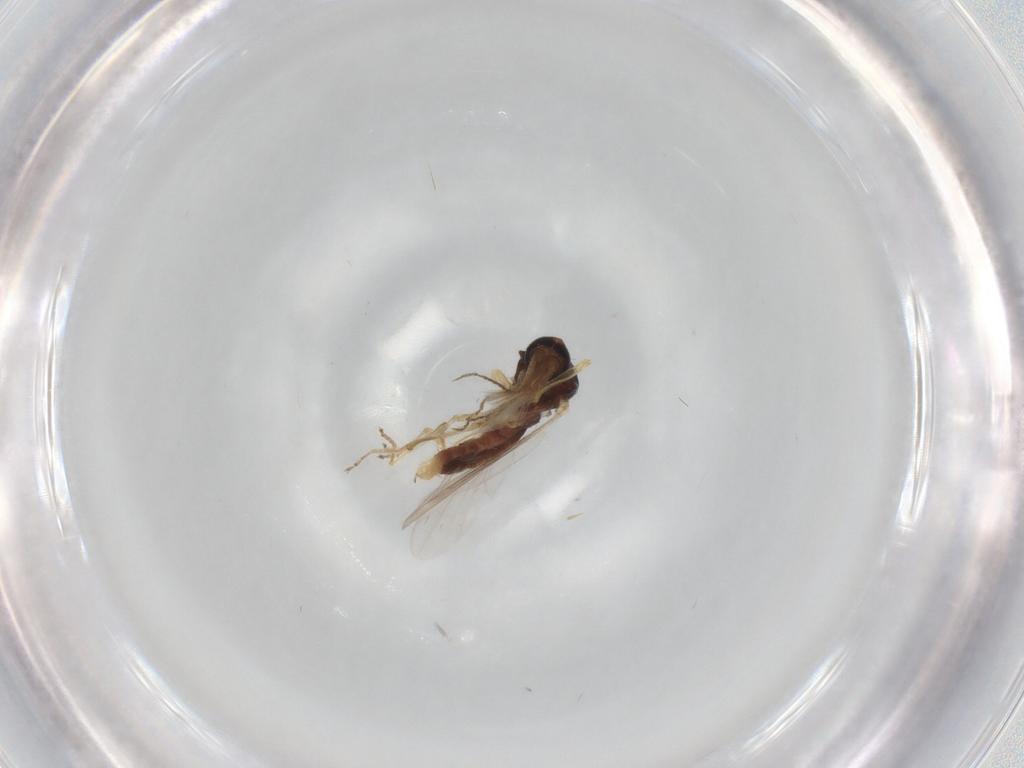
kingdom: Animalia
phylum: Arthropoda
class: Insecta
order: Diptera
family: Ceratopogonidae
